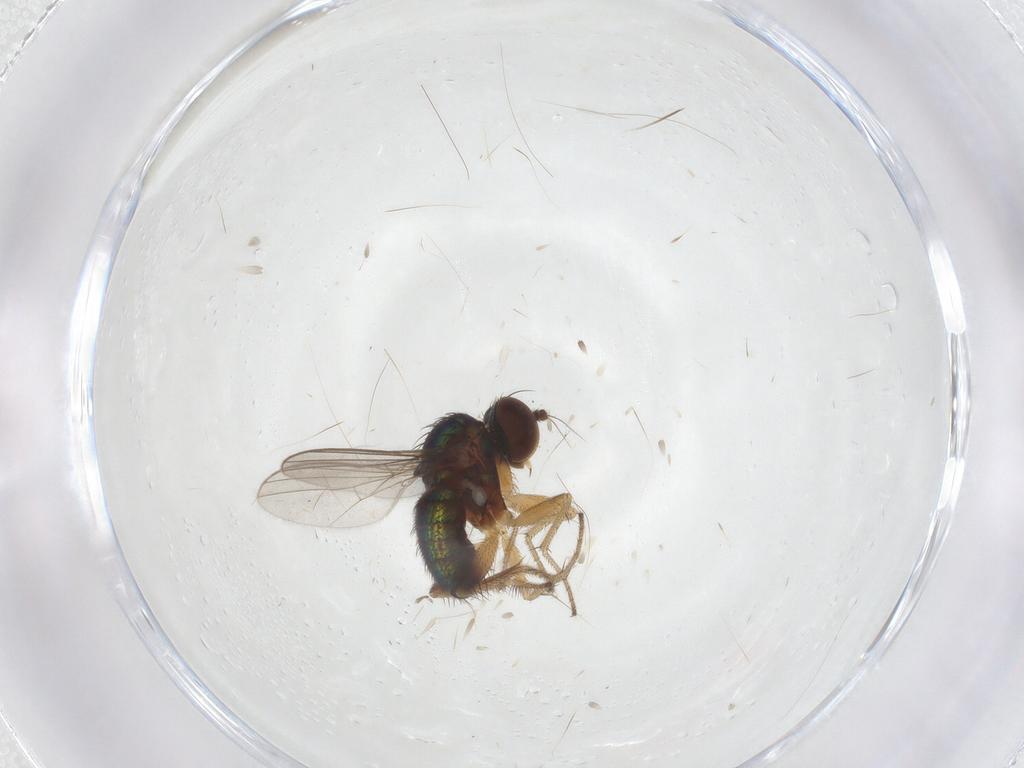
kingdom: Animalia
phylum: Arthropoda
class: Insecta
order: Diptera
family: Dolichopodidae
